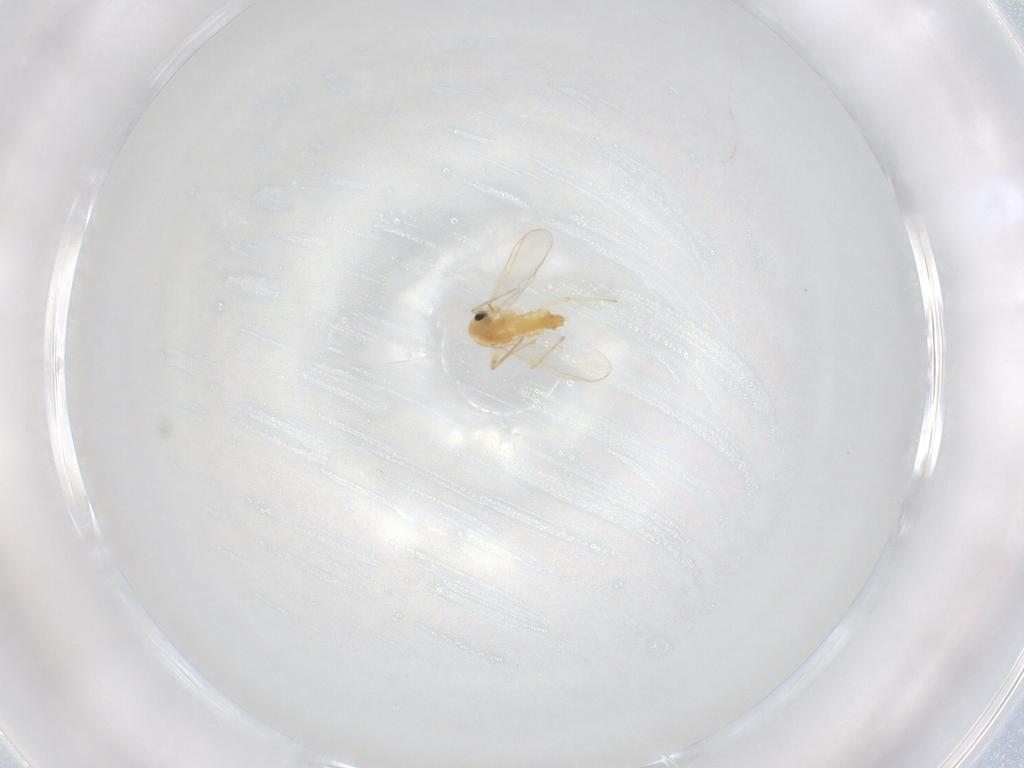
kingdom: Animalia
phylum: Arthropoda
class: Insecta
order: Diptera
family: Chironomidae
